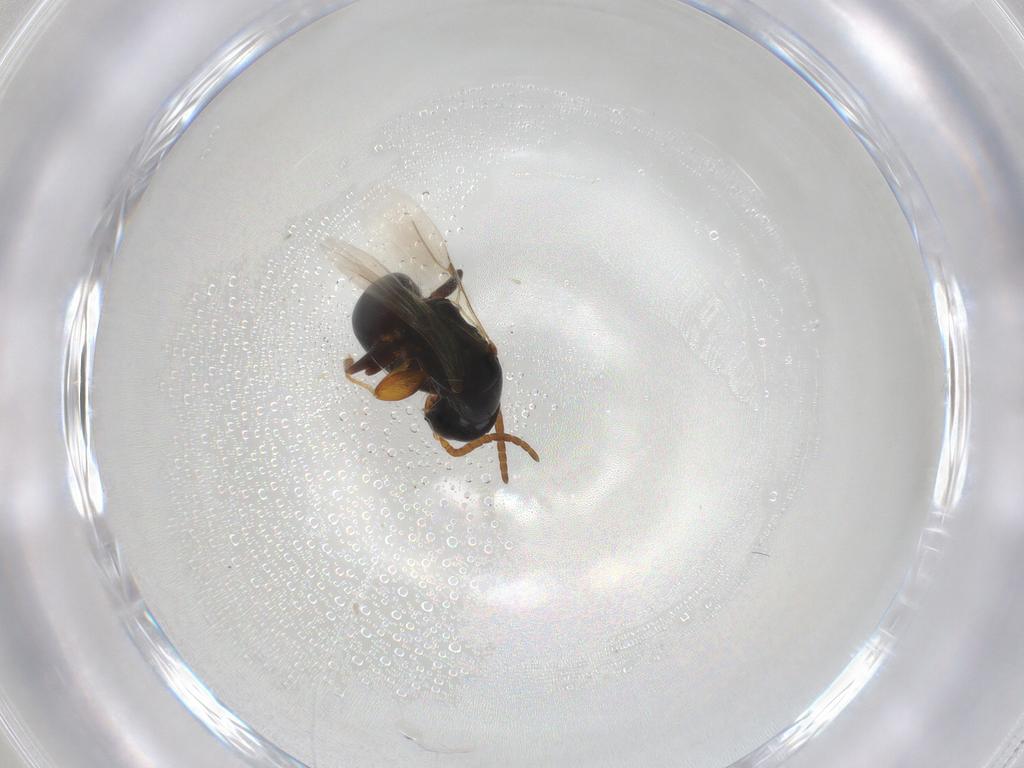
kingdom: Animalia
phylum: Arthropoda
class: Insecta
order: Hymenoptera
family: Bethylidae
